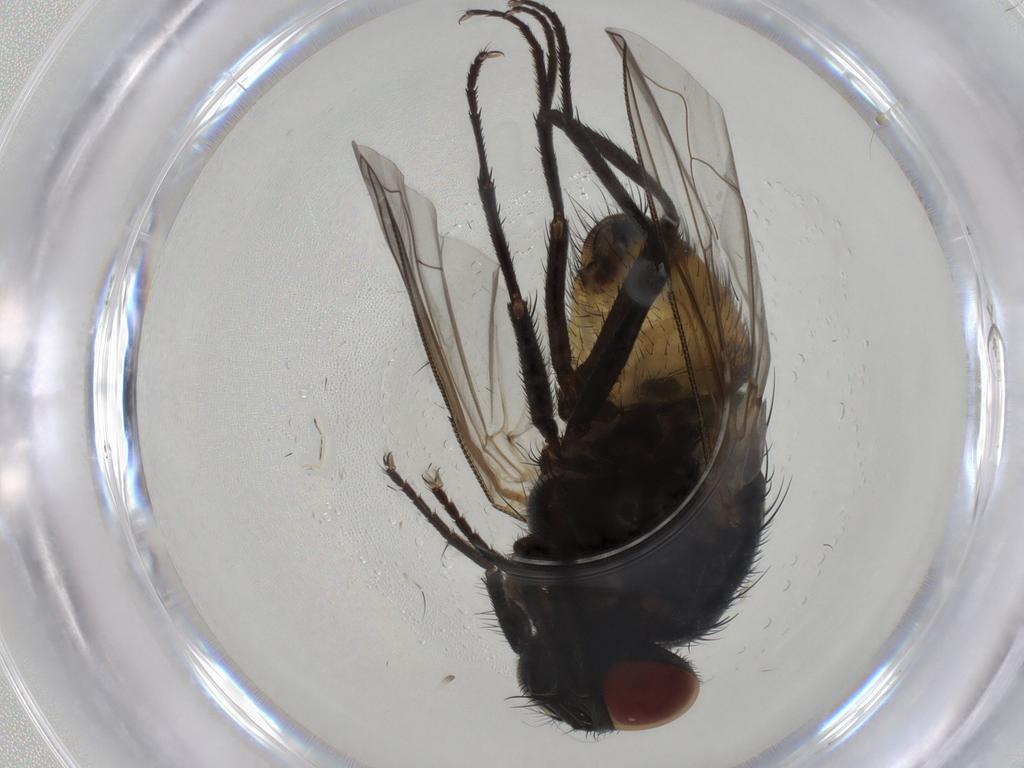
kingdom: Animalia
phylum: Arthropoda
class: Insecta
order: Diptera
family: Muscidae
